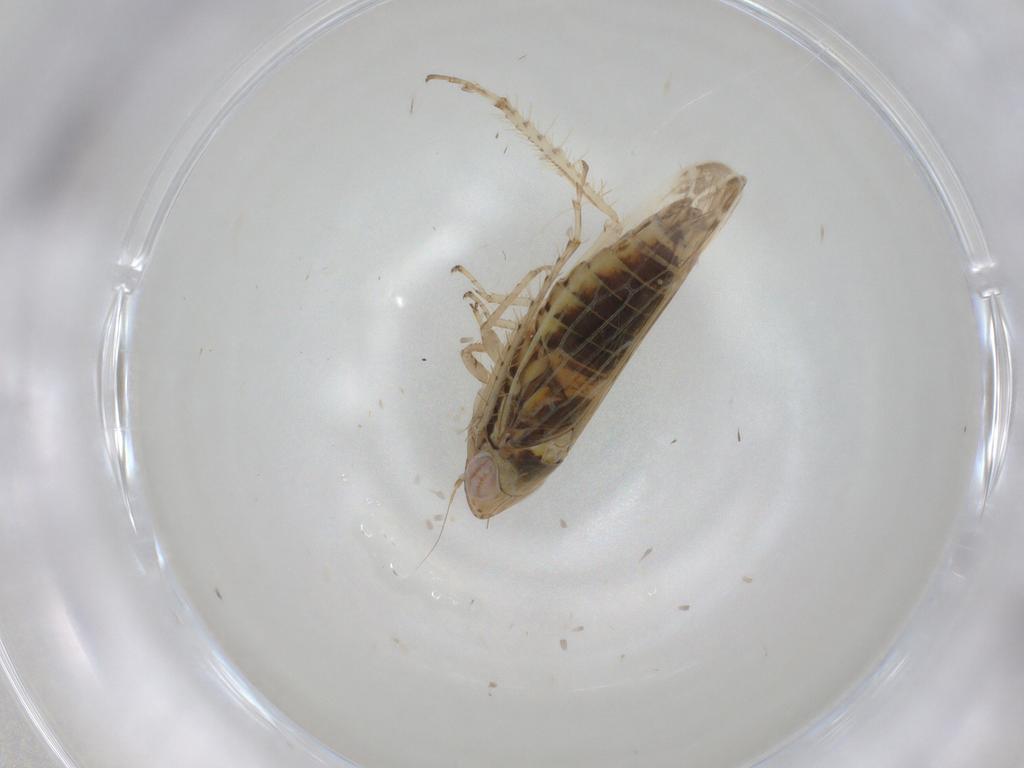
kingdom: Animalia
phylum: Arthropoda
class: Insecta
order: Hemiptera
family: Cicadellidae
